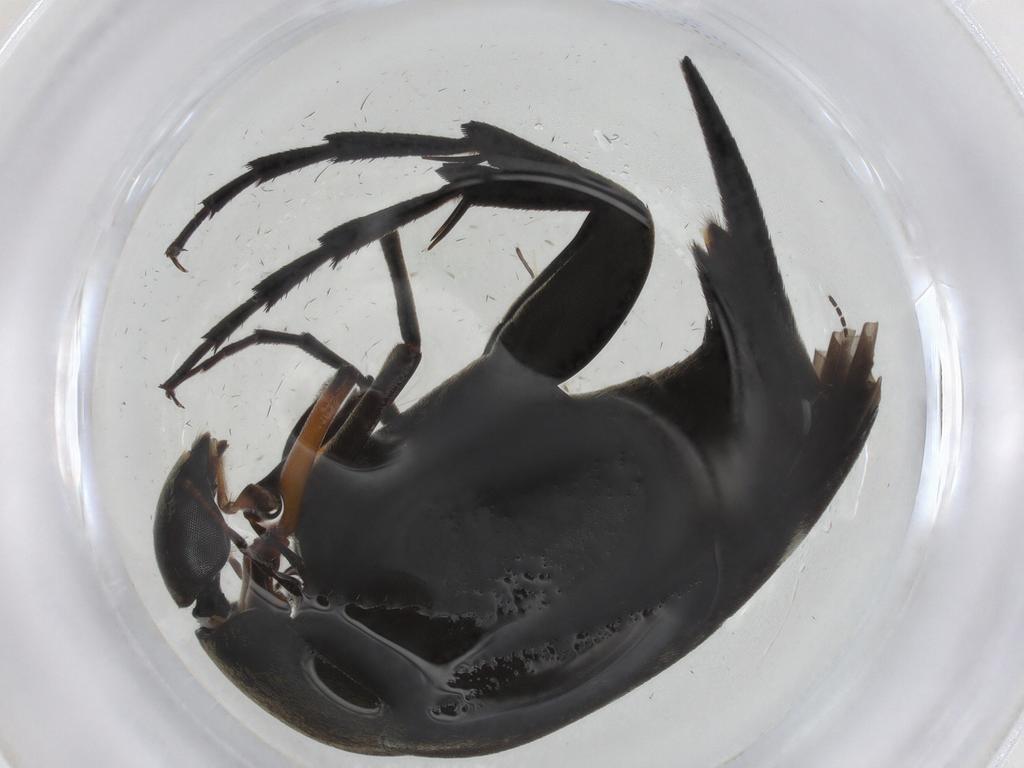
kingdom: Animalia
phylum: Arthropoda
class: Insecta
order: Coleoptera
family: Mordellidae
